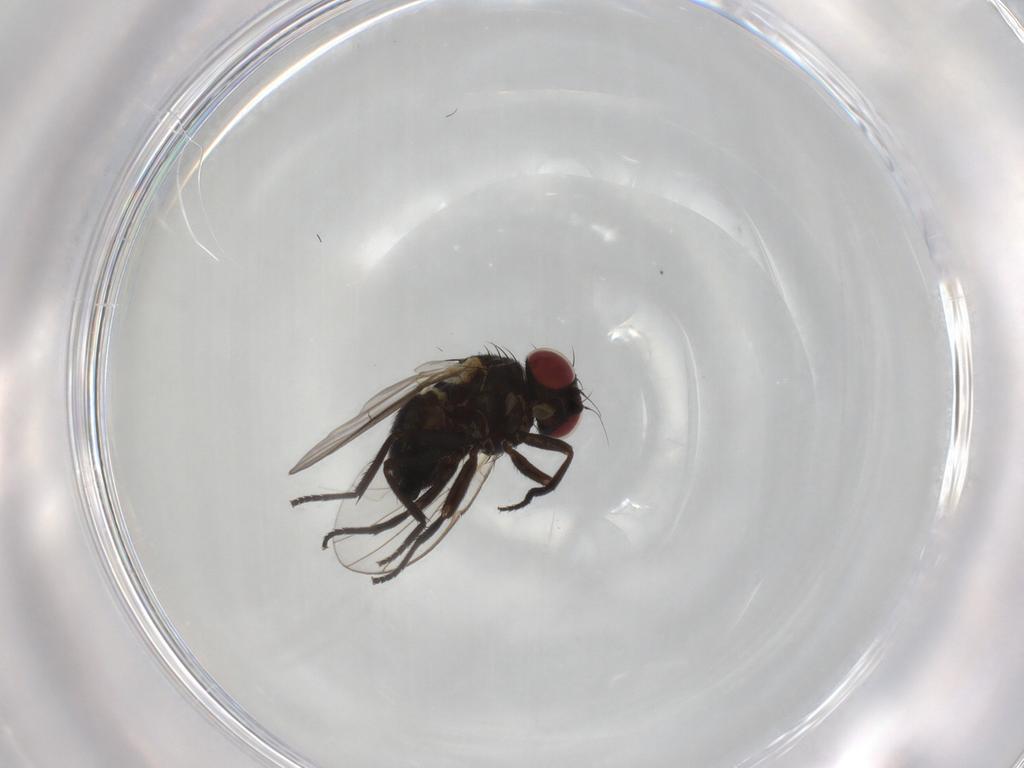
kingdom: Animalia
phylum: Arthropoda
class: Insecta
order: Diptera
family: Agromyzidae
